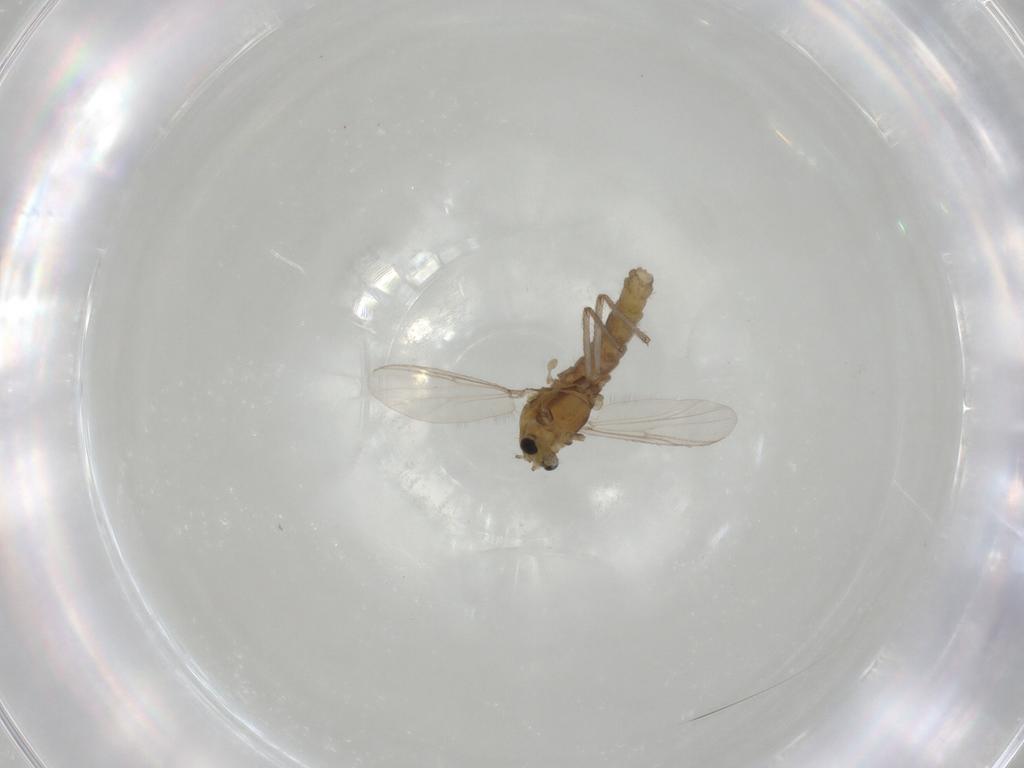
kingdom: Animalia
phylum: Arthropoda
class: Insecta
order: Diptera
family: Chironomidae
